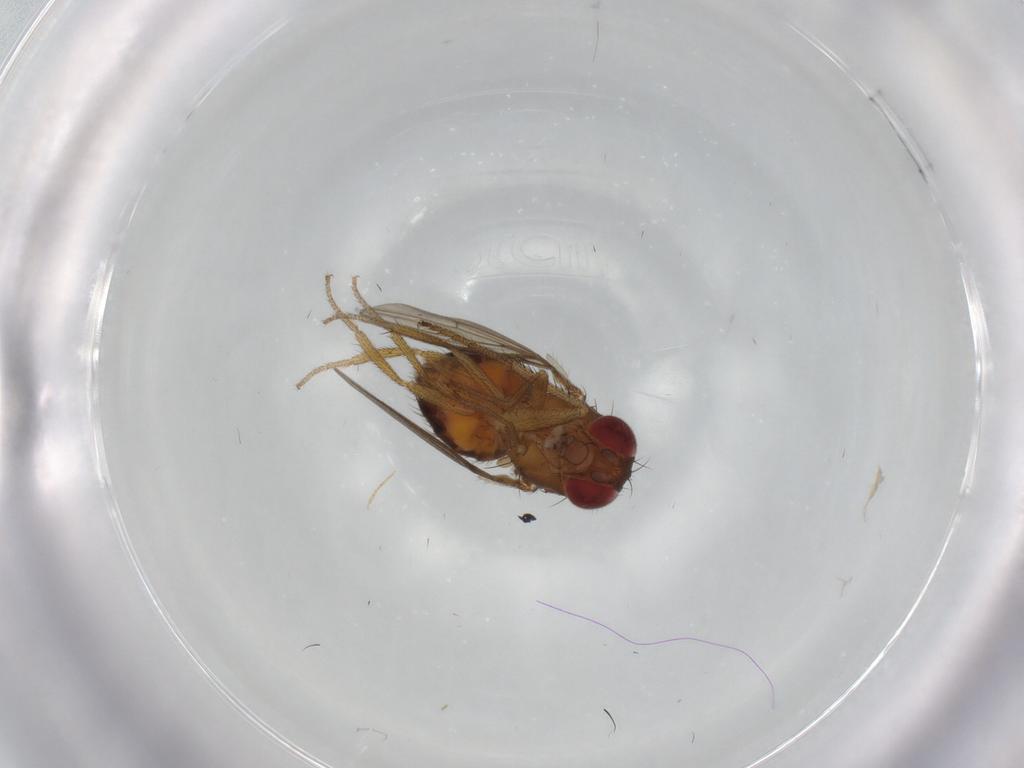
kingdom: Animalia
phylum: Arthropoda
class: Insecta
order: Diptera
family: Drosophilidae
